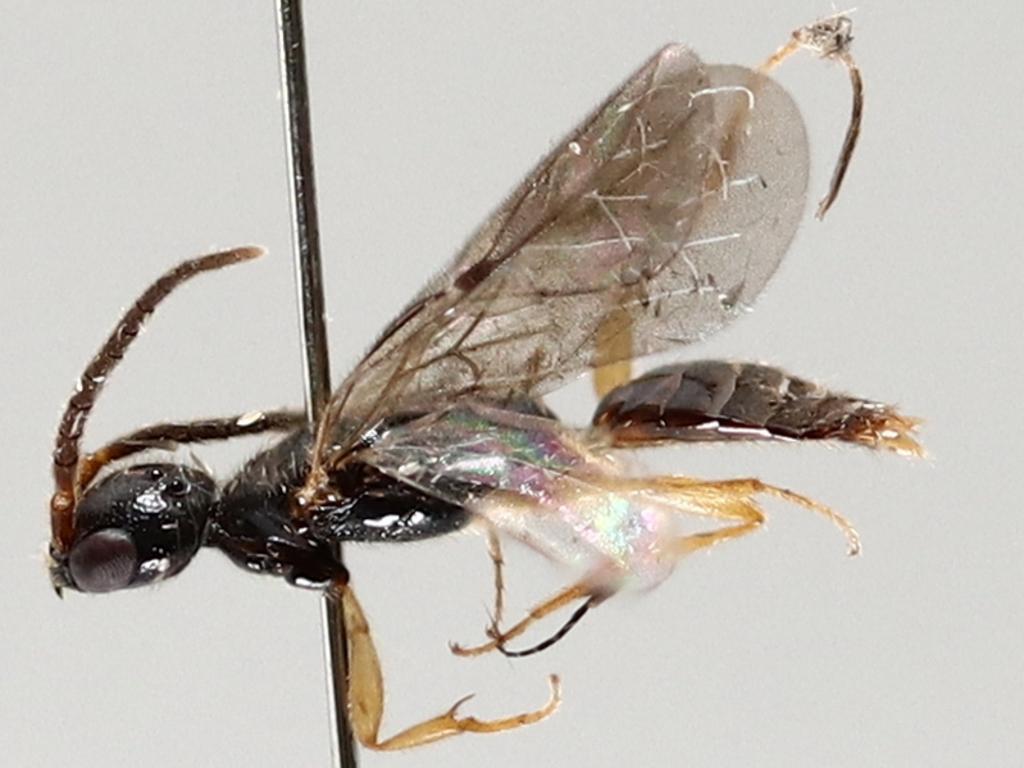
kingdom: Animalia
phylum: Arthropoda
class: Insecta
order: Diptera
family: Cecidomyiidae
